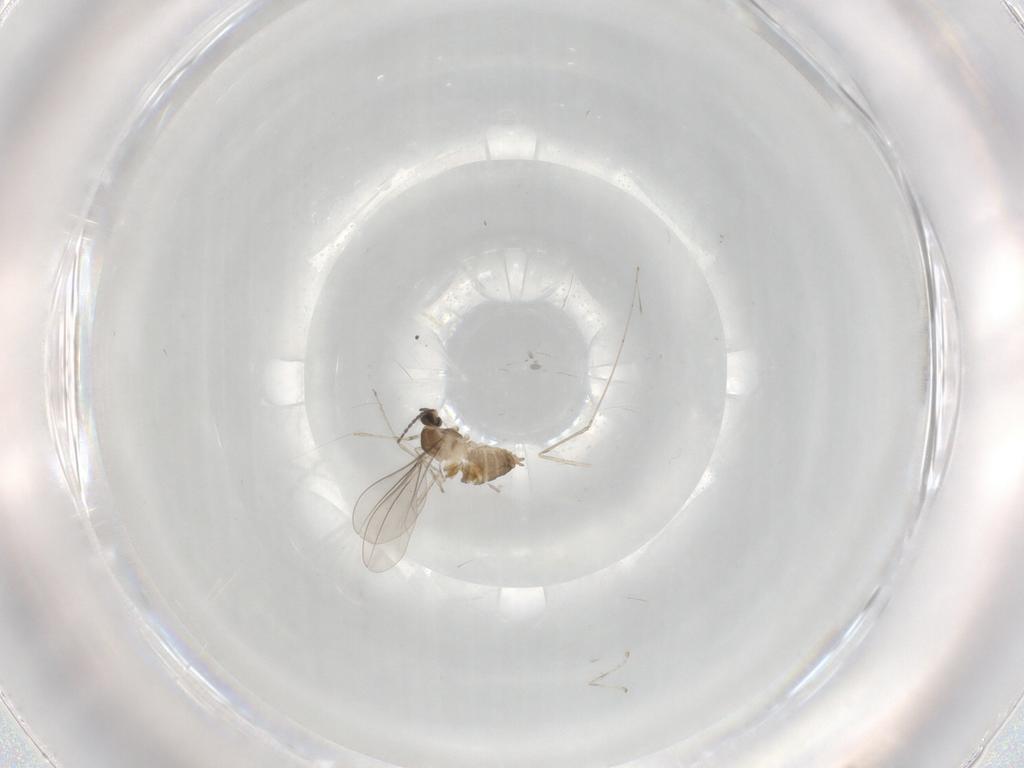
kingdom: Animalia
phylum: Arthropoda
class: Insecta
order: Diptera
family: Cecidomyiidae
